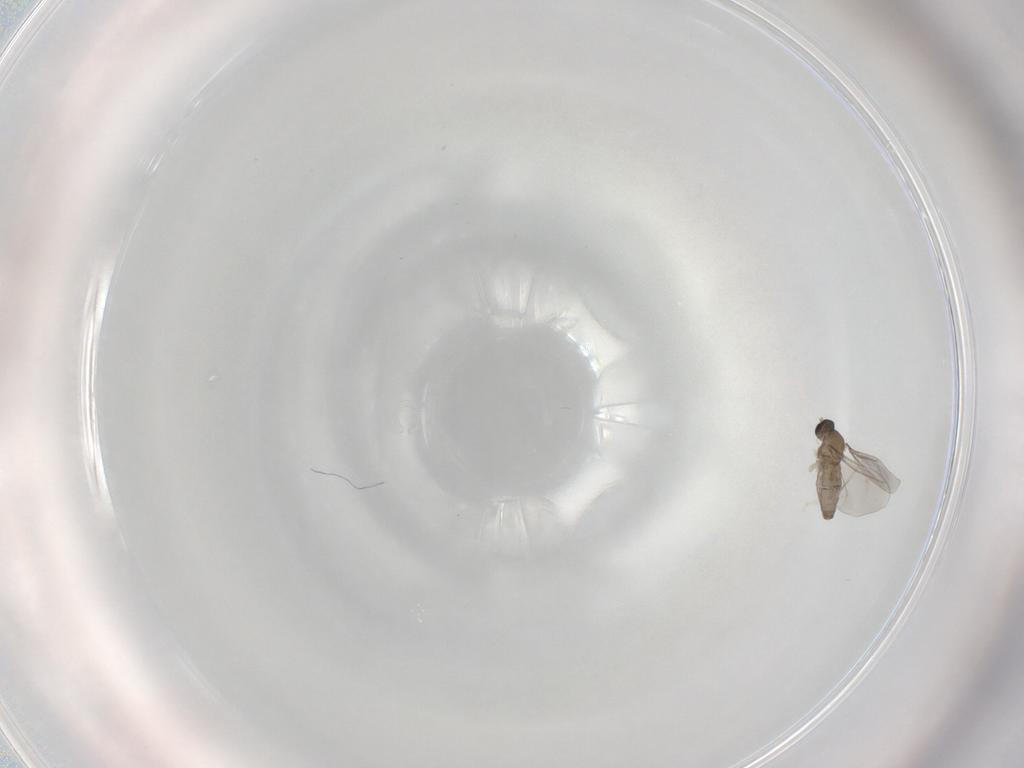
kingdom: Animalia
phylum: Arthropoda
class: Insecta
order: Diptera
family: Cecidomyiidae
